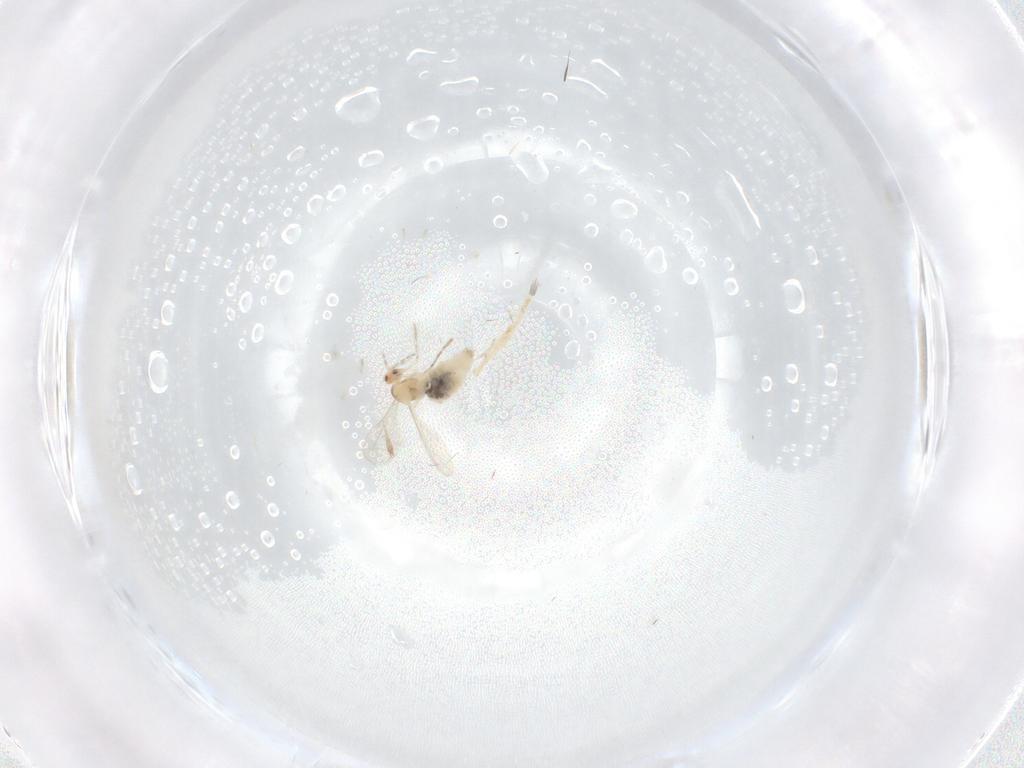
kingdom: Animalia
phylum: Arthropoda
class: Insecta
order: Diptera
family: Cecidomyiidae
